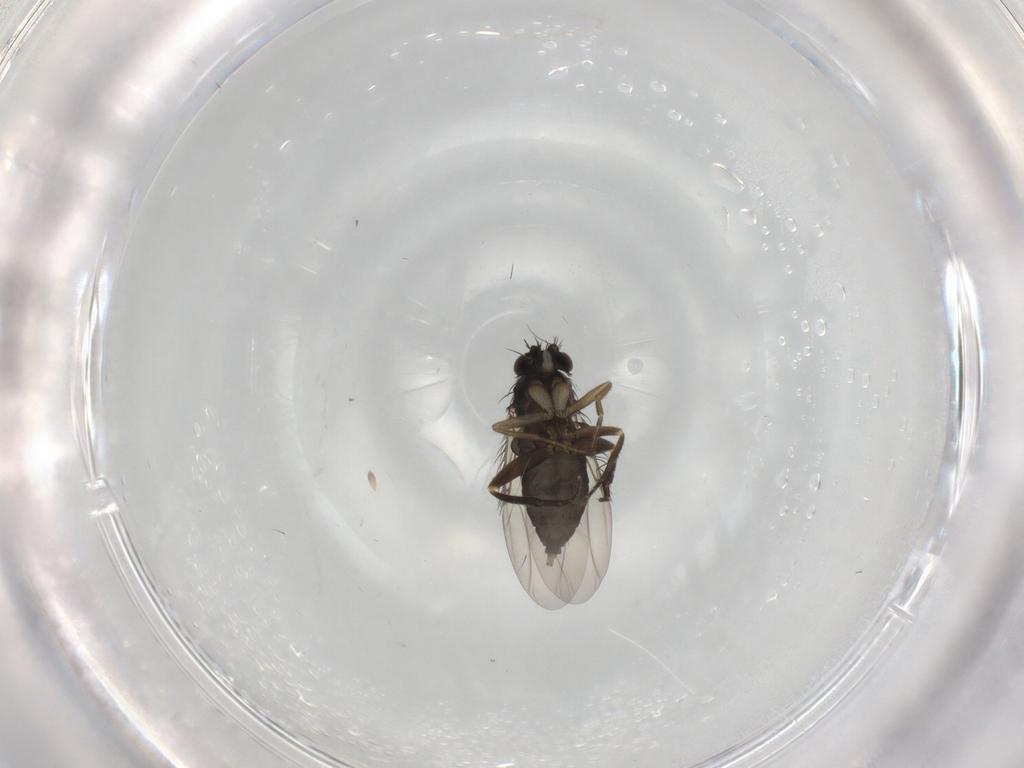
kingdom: Animalia
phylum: Arthropoda
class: Insecta
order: Diptera
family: Phoridae
